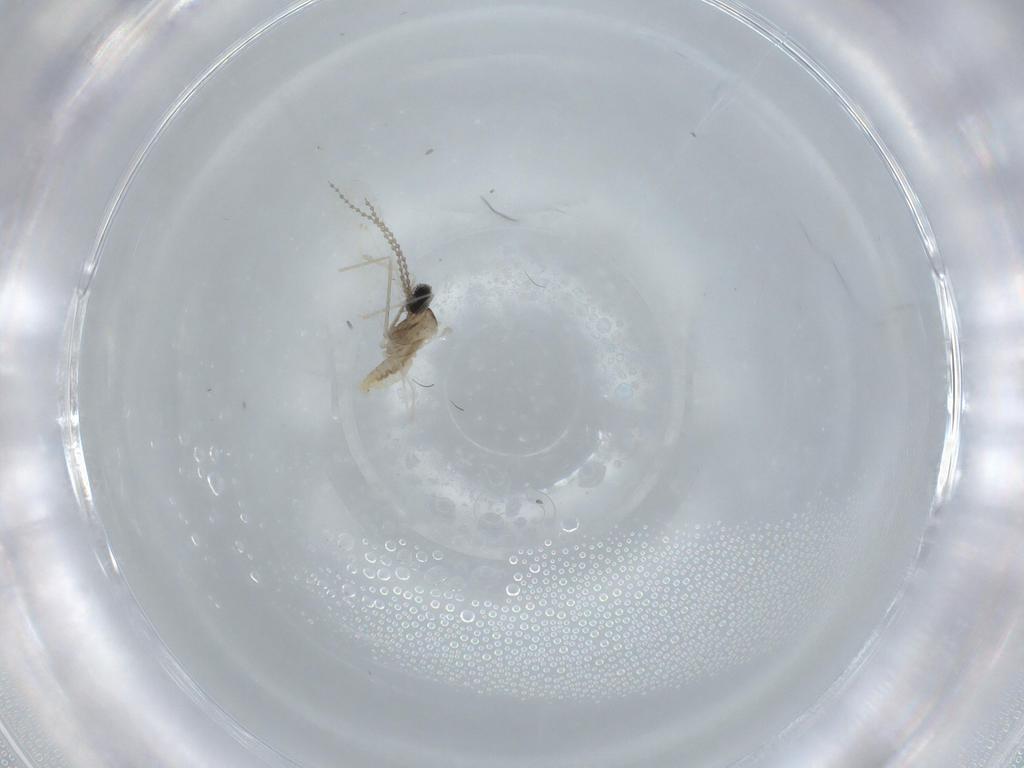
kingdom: Animalia
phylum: Arthropoda
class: Insecta
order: Diptera
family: Cecidomyiidae
